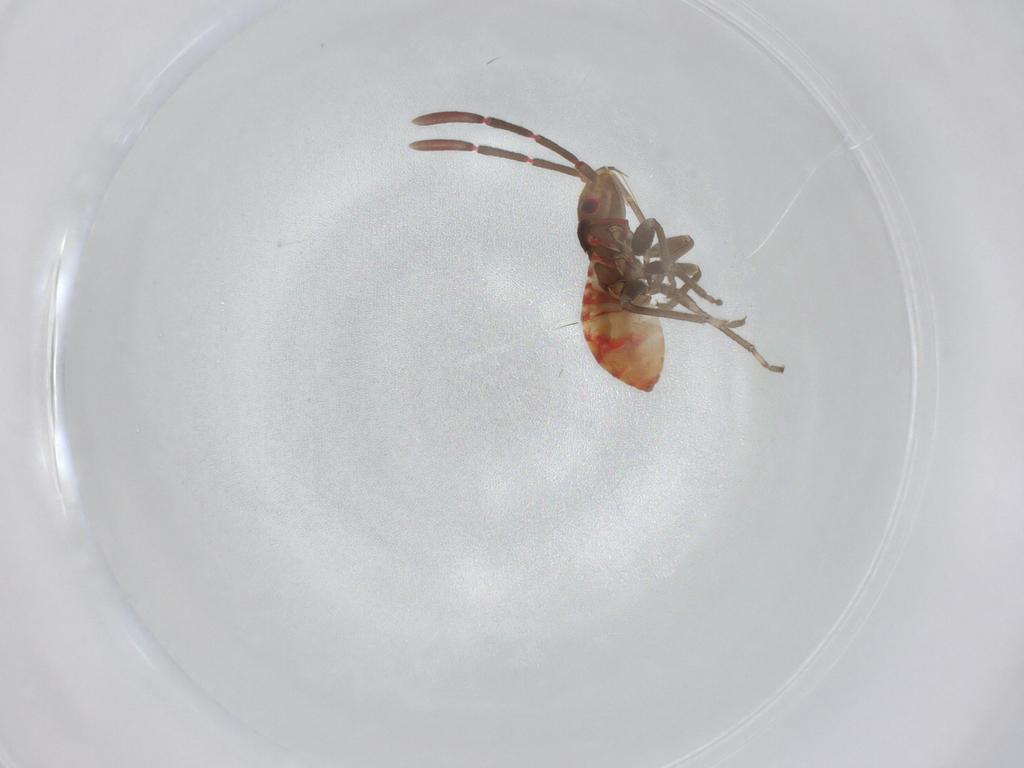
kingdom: Animalia
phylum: Arthropoda
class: Insecta
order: Hemiptera
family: Rhyparochromidae
